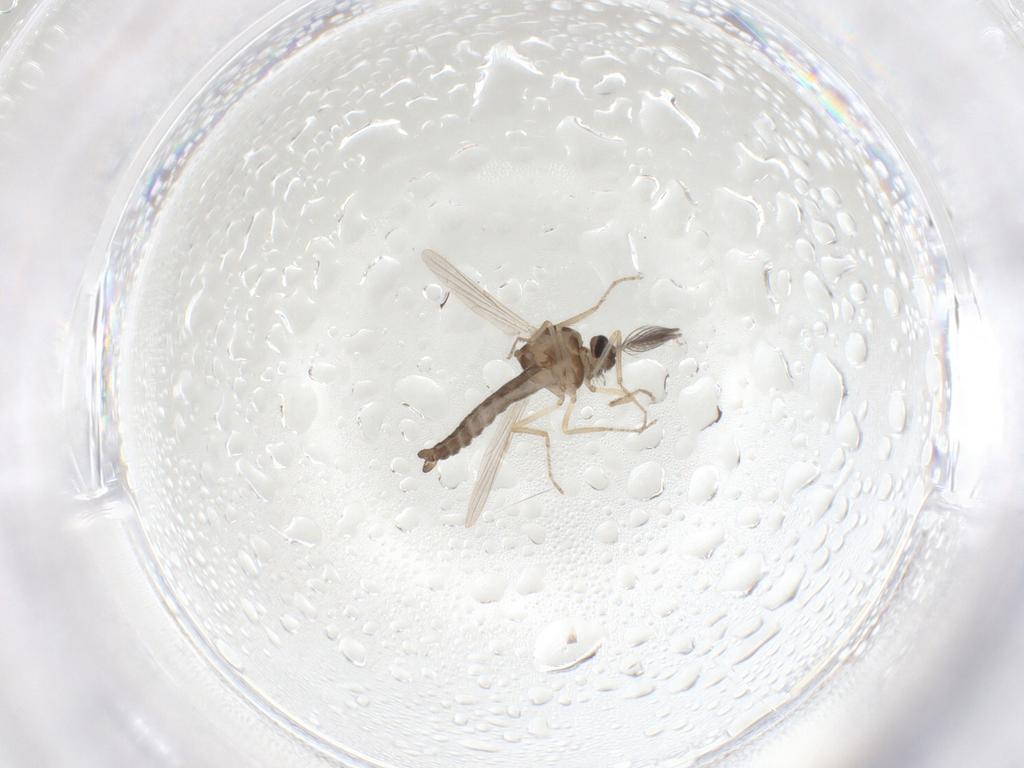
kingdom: Animalia
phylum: Arthropoda
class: Insecta
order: Diptera
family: Ceratopogonidae
